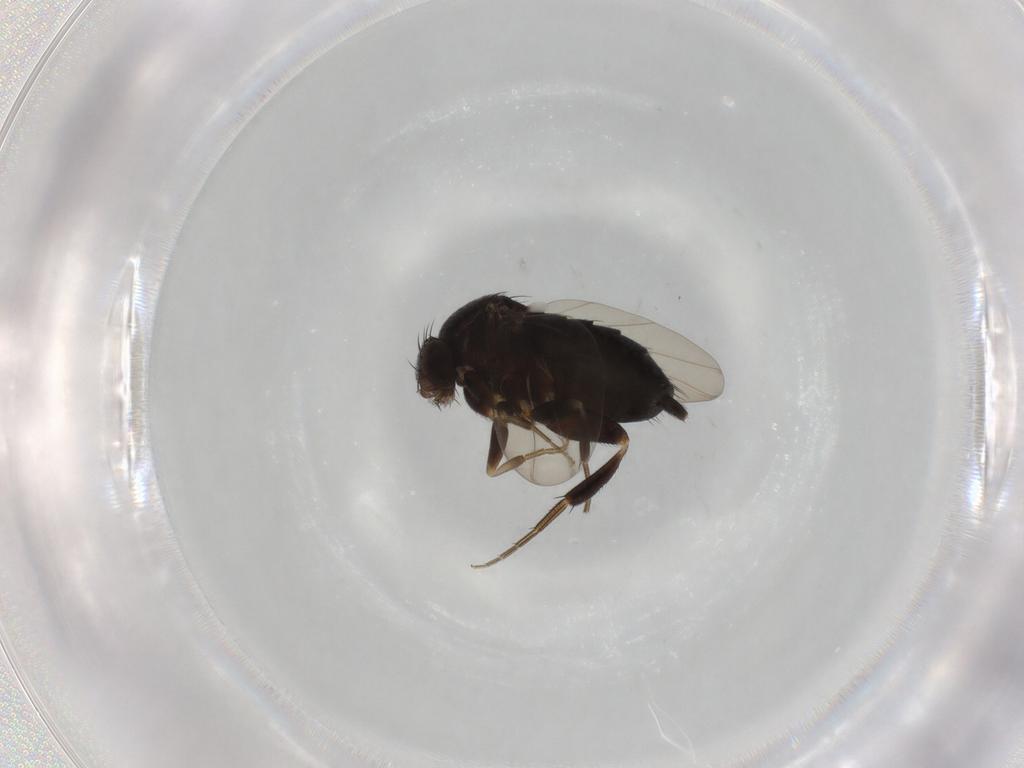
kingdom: Animalia
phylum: Arthropoda
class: Insecta
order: Diptera
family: Phoridae
